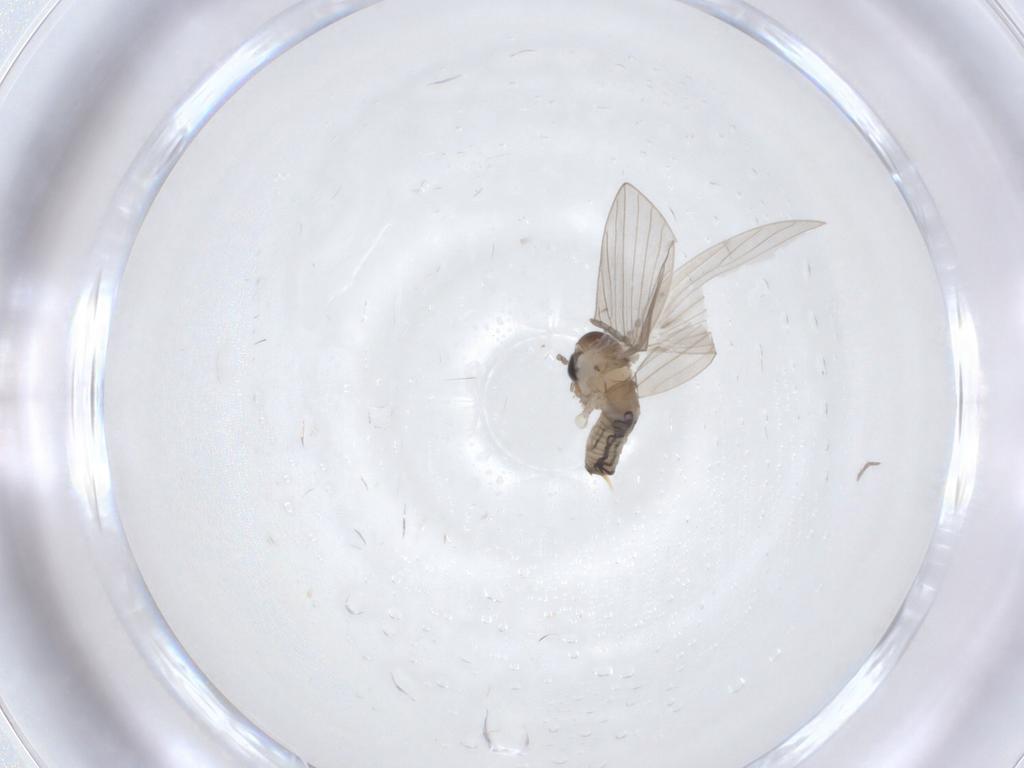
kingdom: Animalia
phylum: Arthropoda
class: Insecta
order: Diptera
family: Psychodidae
